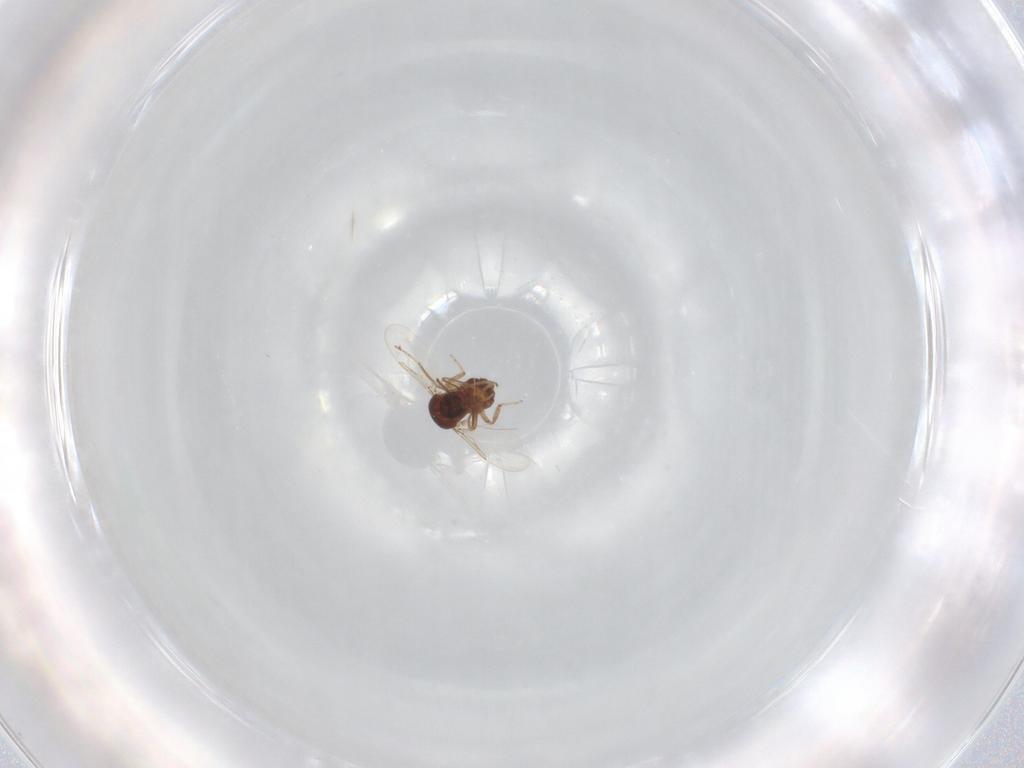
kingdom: Animalia
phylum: Arthropoda
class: Insecta
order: Diptera
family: Ceratopogonidae
